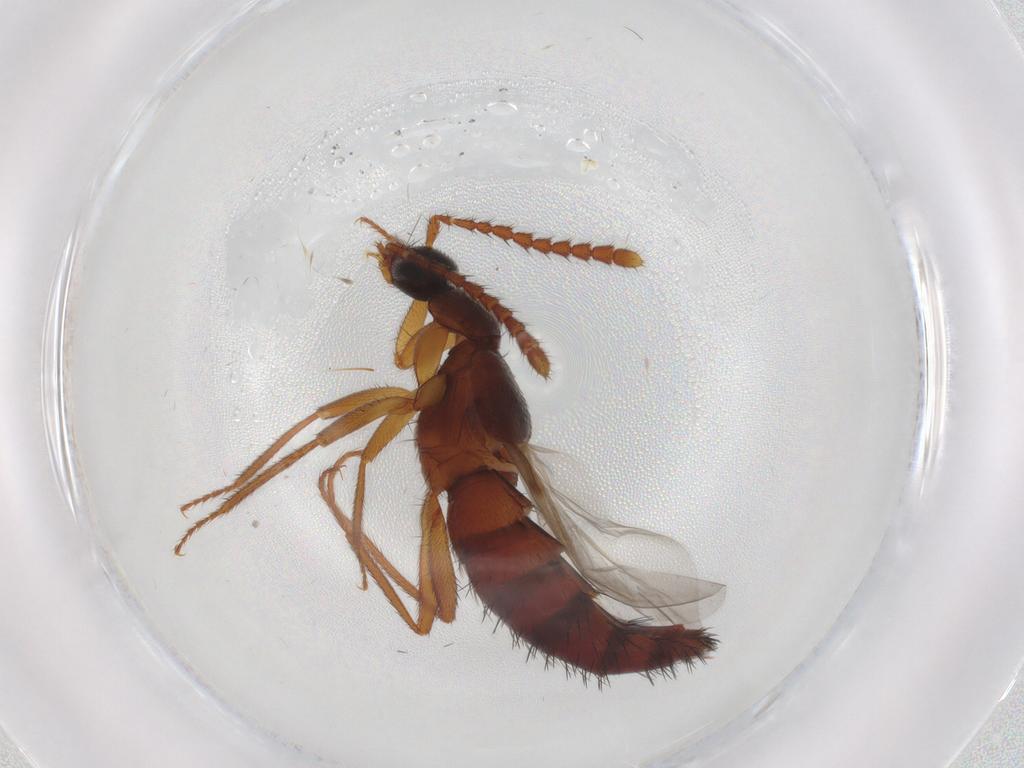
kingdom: Animalia
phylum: Arthropoda
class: Insecta
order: Coleoptera
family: Staphylinidae
